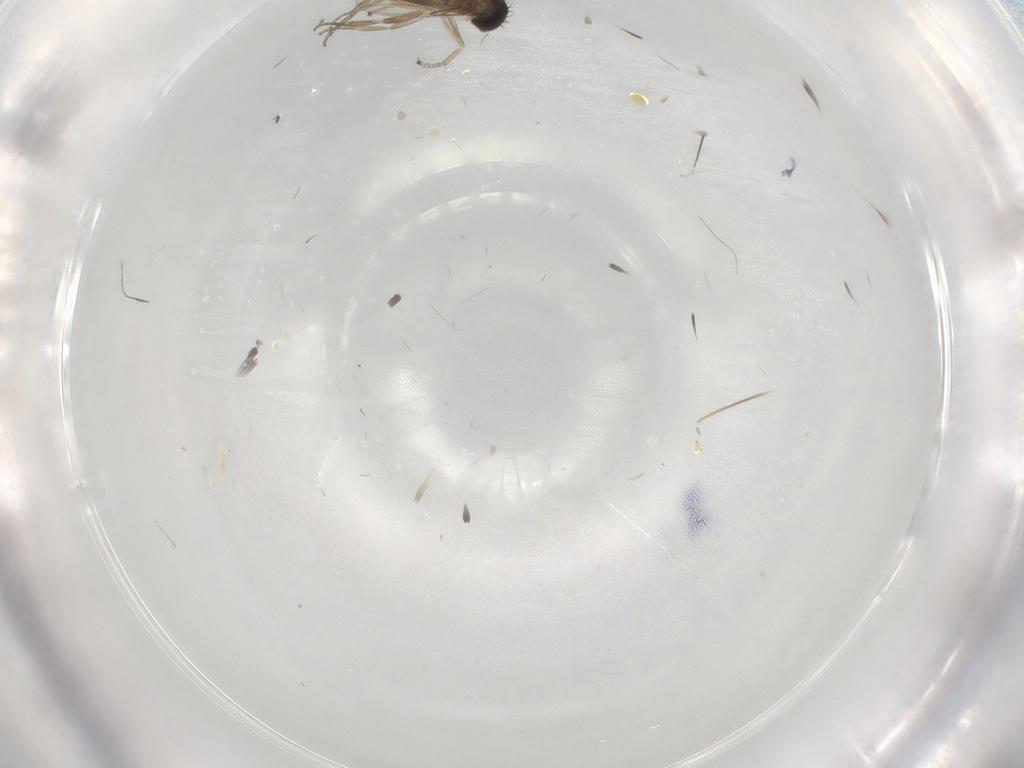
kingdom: Animalia
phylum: Arthropoda
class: Insecta
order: Diptera
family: Phoridae
